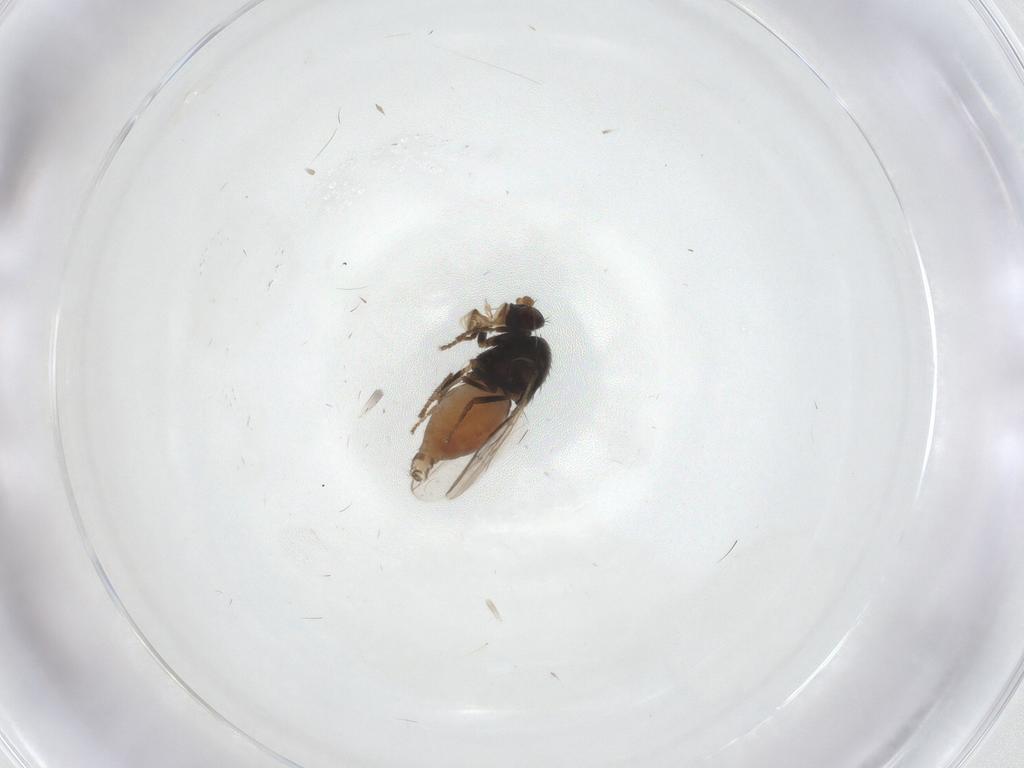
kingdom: Animalia
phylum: Arthropoda
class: Insecta
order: Diptera
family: Sphaeroceridae
